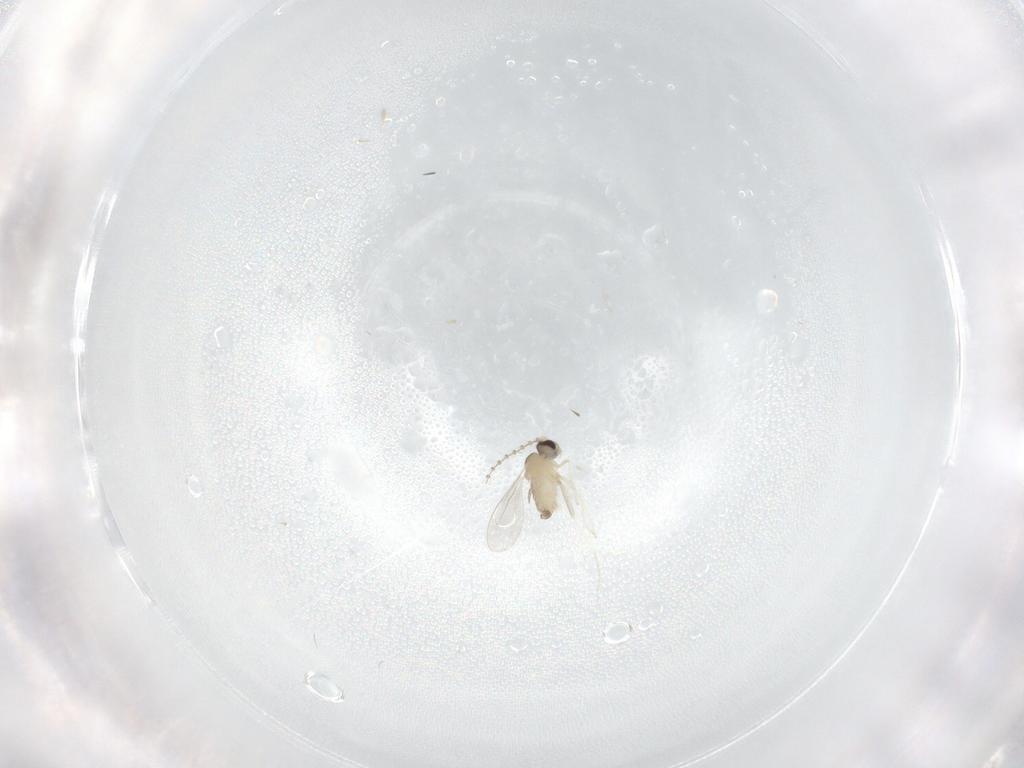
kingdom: Animalia
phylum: Arthropoda
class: Insecta
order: Diptera
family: Chironomidae
